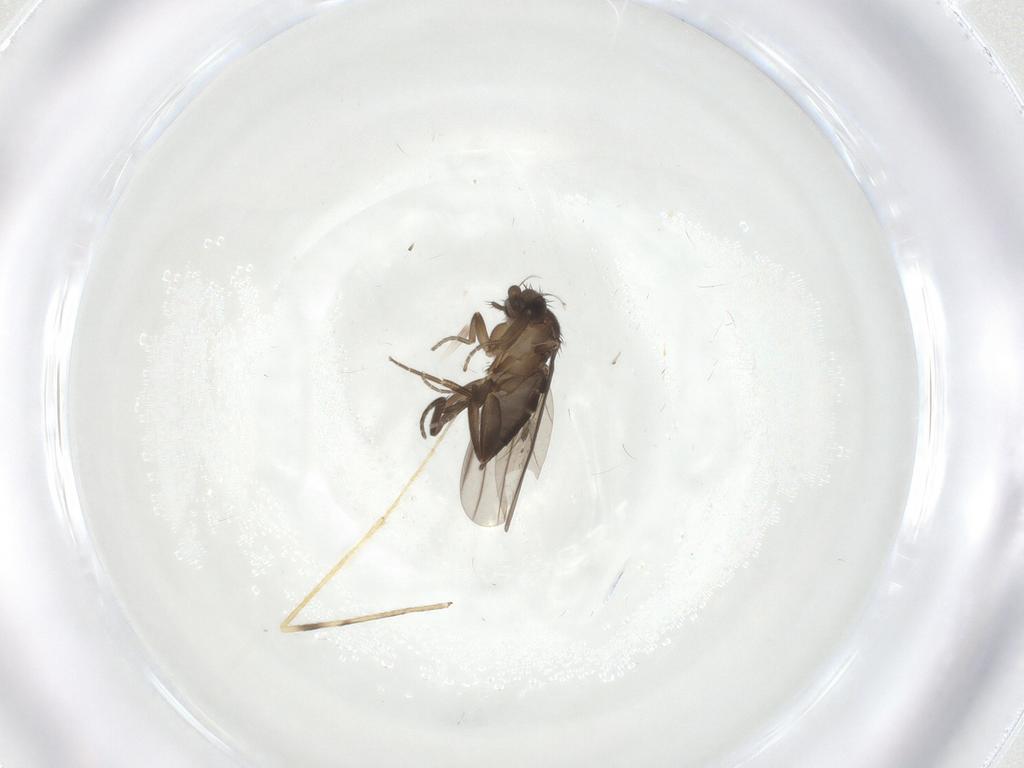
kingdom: Animalia
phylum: Arthropoda
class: Insecta
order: Diptera
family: Phoridae
